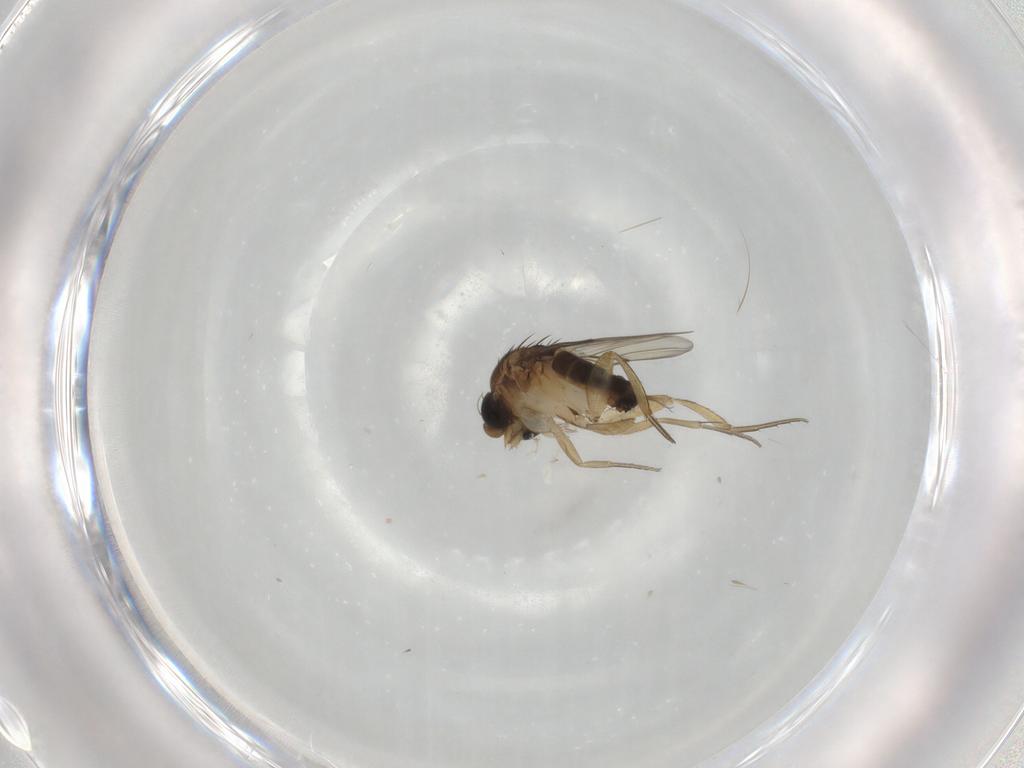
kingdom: Animalia
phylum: Arthropoda
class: Insecta
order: Diptera
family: Phoridae
